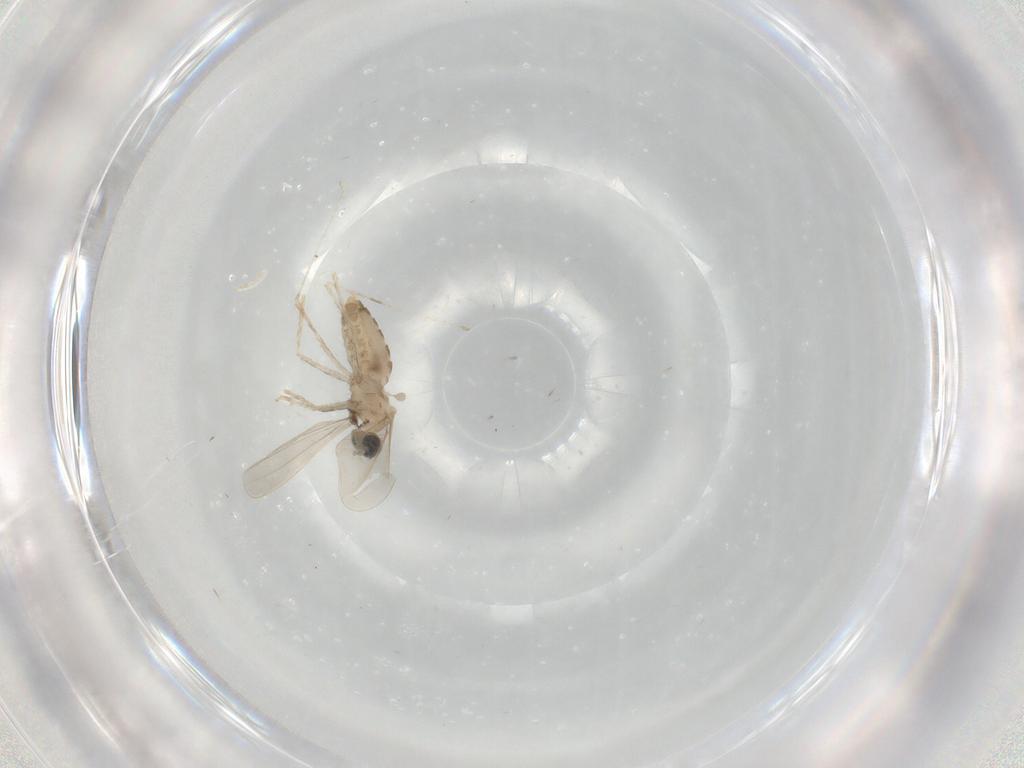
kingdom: Animalia
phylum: Arthropoda
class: Insecta
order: Diptera
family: Cecidomyiidae
